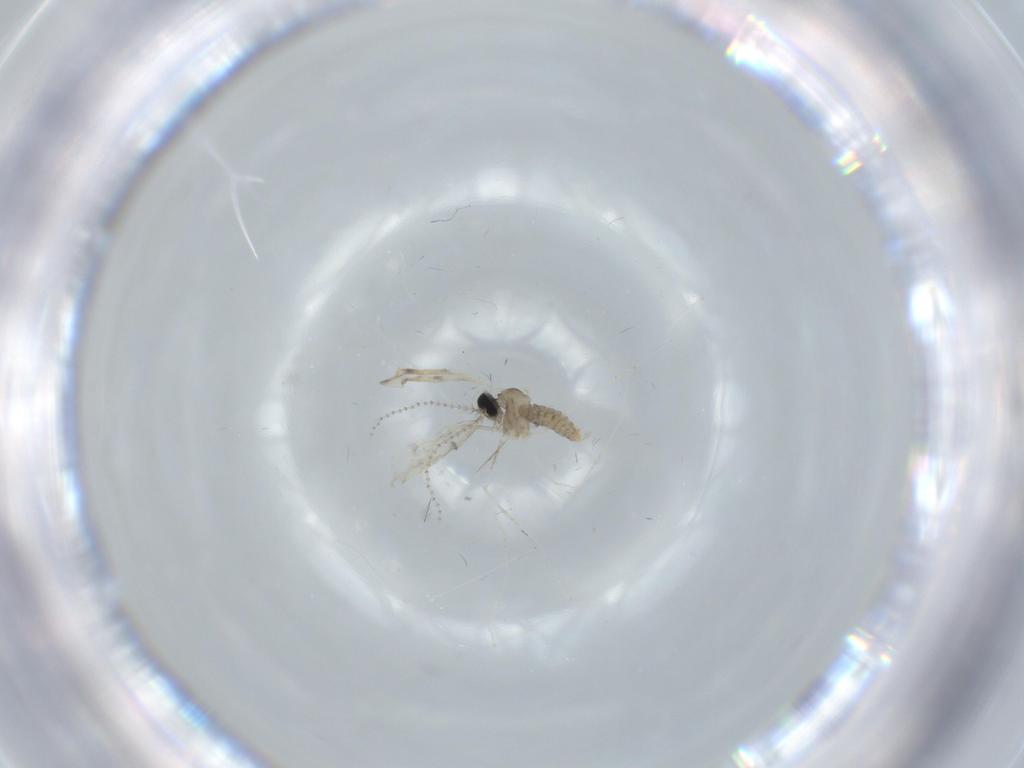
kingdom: Animalia
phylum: Arthropoda
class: Insecta
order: Diptera
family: Cecidomyiidae
